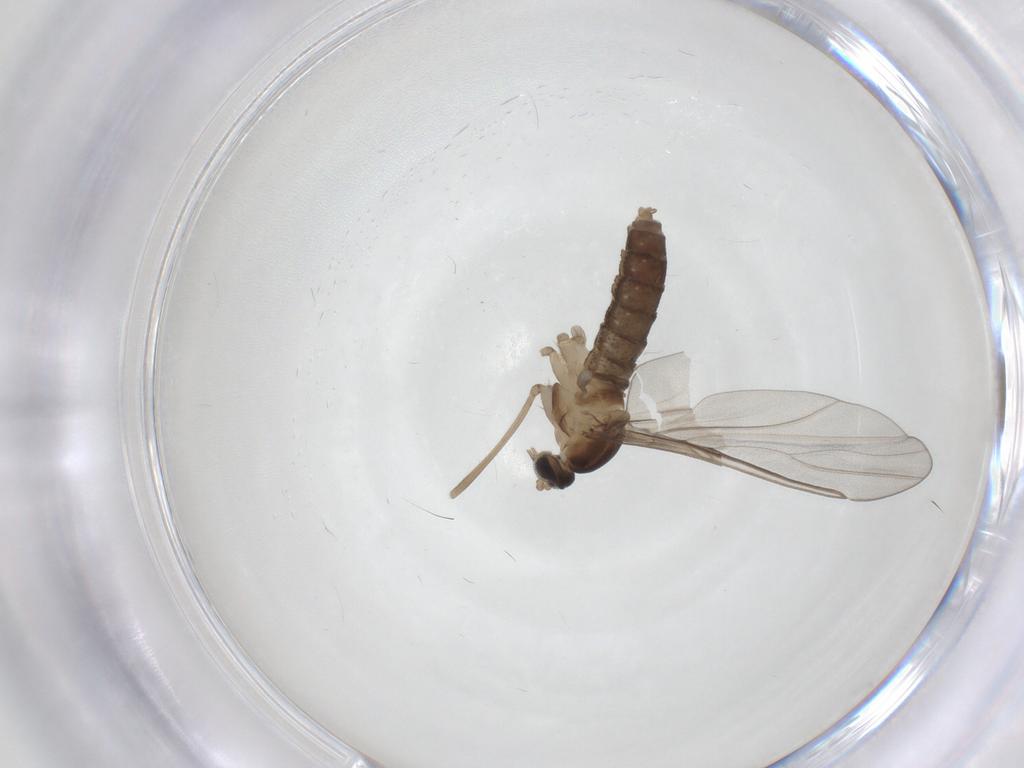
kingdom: Animalia
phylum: Arthropoda
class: Insecta
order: Diptera
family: Cecidomyiidae
